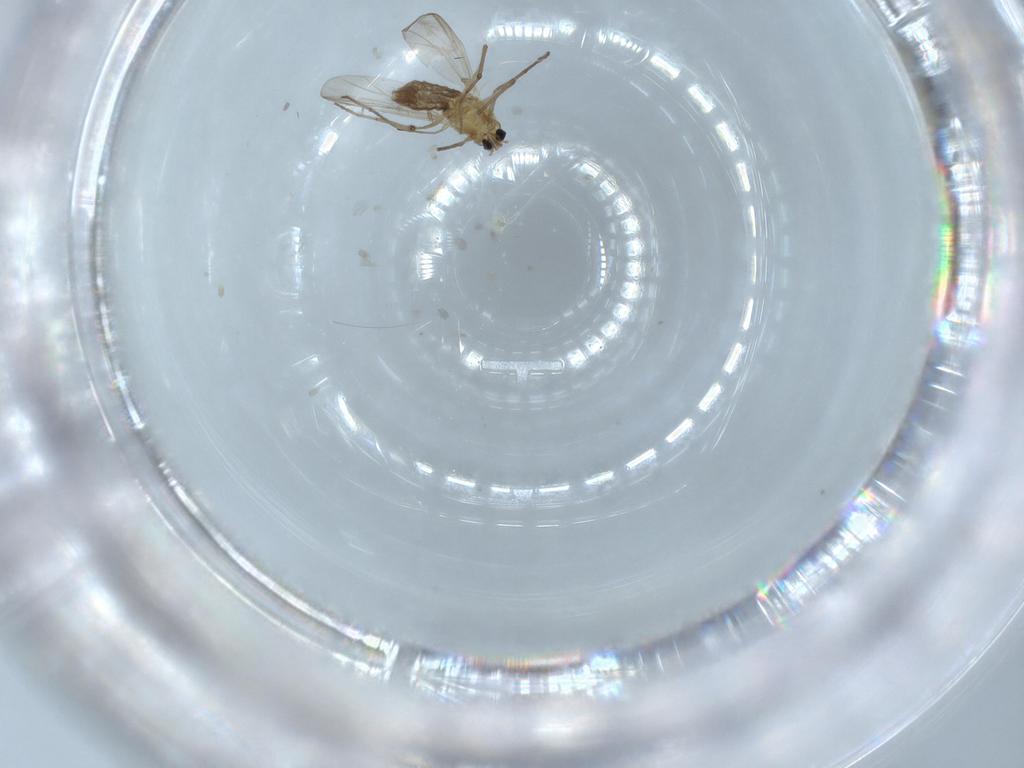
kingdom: Animalia
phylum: Arthropoda
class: Insecta
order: Diptera
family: Chironomidae
